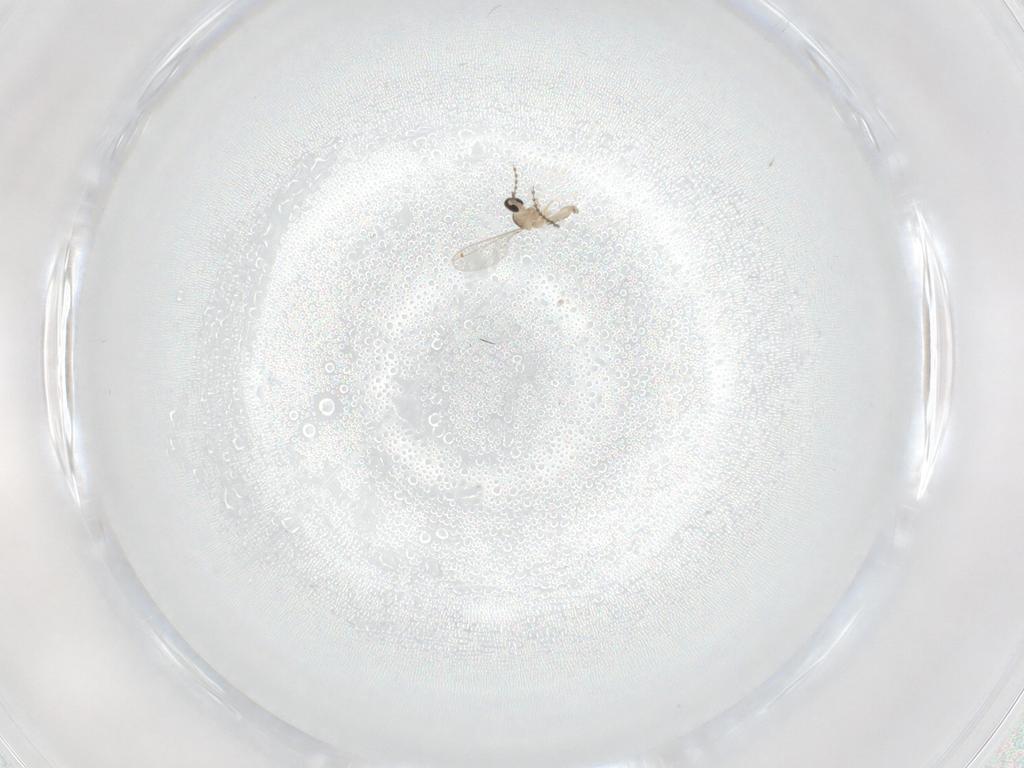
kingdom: Animalia
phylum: Arthropoda
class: Insecta
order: Diptera
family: Cecidomyiidae
